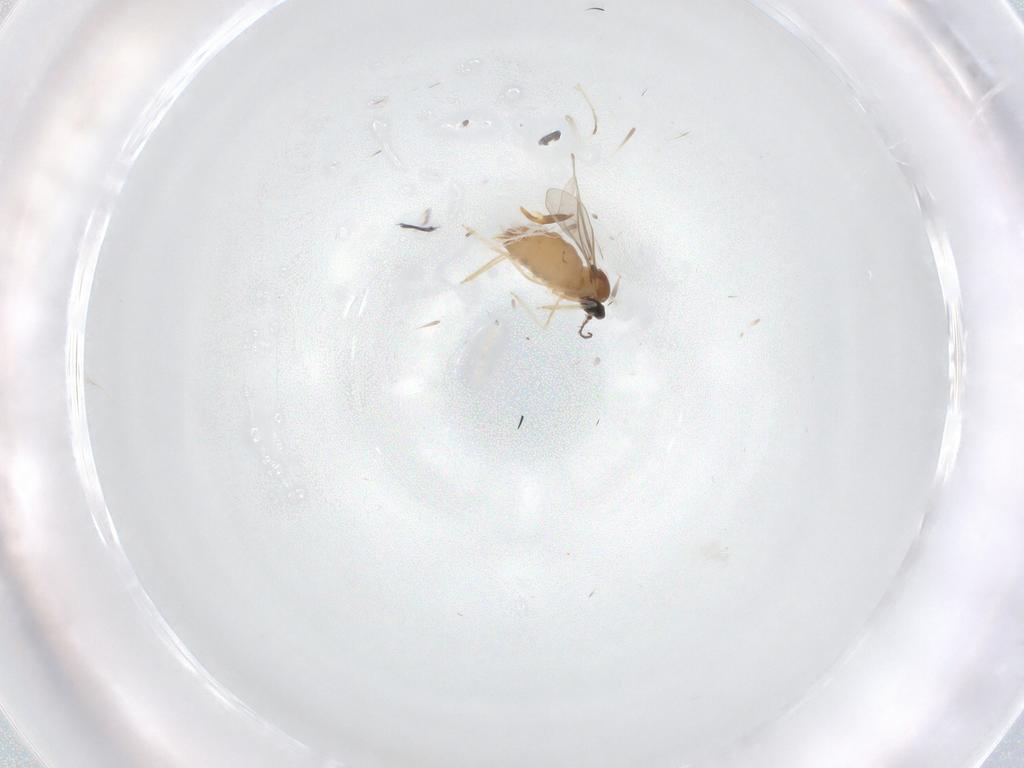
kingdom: Animalia
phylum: Arthropoda
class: Insecta
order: Diptera
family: Cecidomyiidae
